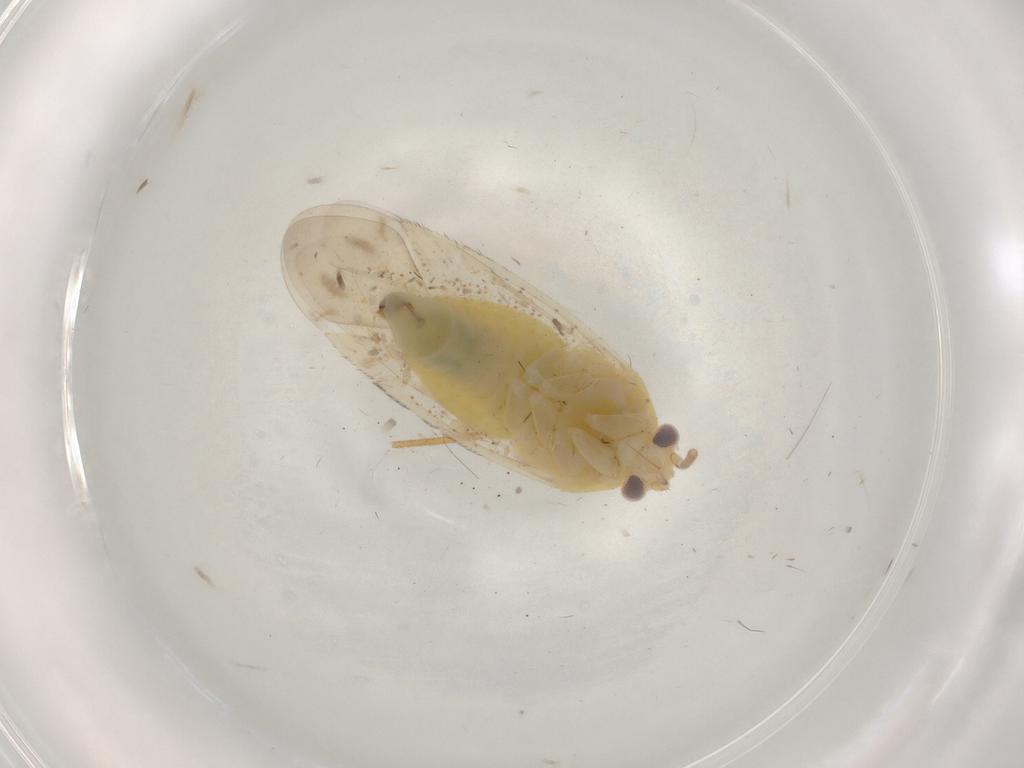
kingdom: Animalia
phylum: Arthropoda
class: Insecta
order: Hemiptera
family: Miridae
